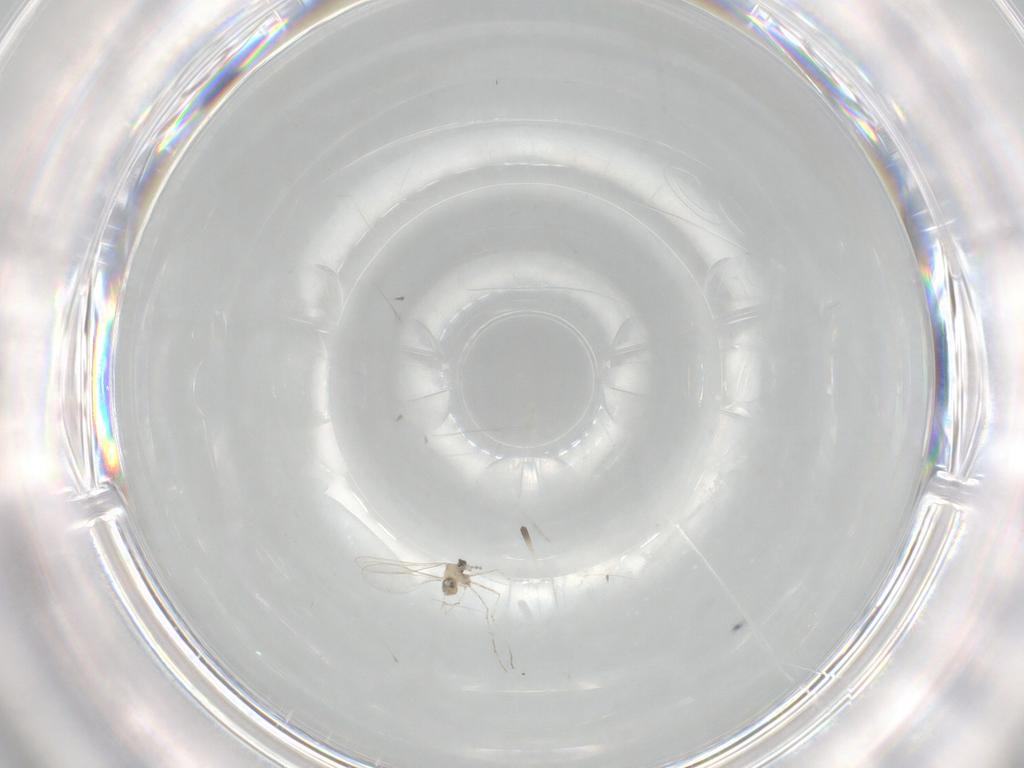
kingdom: Animalia
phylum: Arthropoda
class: Insecta
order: Diptera
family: Cecidomyiidae
